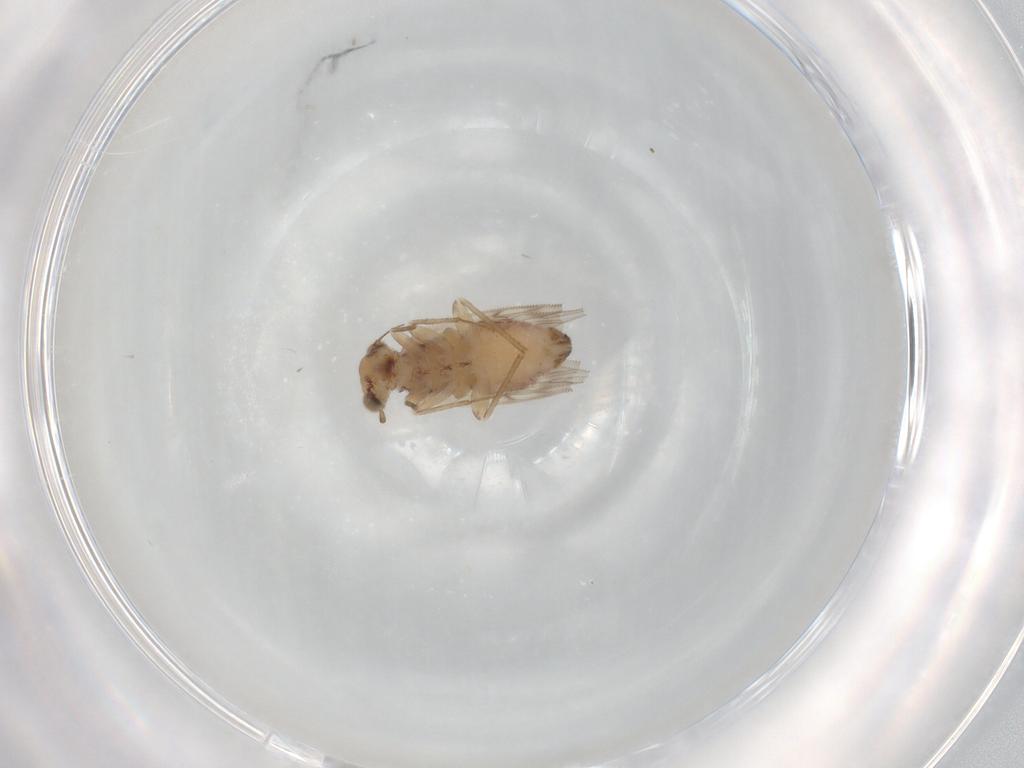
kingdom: Animalia
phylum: Arthropoda
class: Insecta
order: Psocodea
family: Lepidopsocidae
